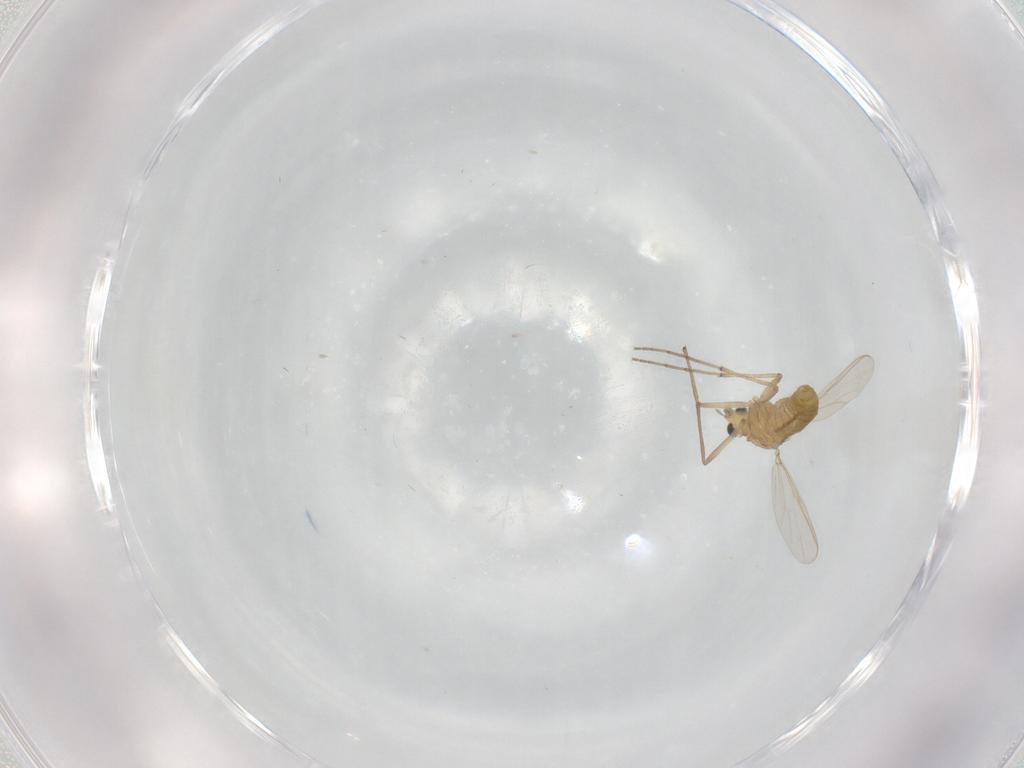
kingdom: Animalia
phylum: Arthropoda
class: Insecta
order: Diptera
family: Chironomidae
